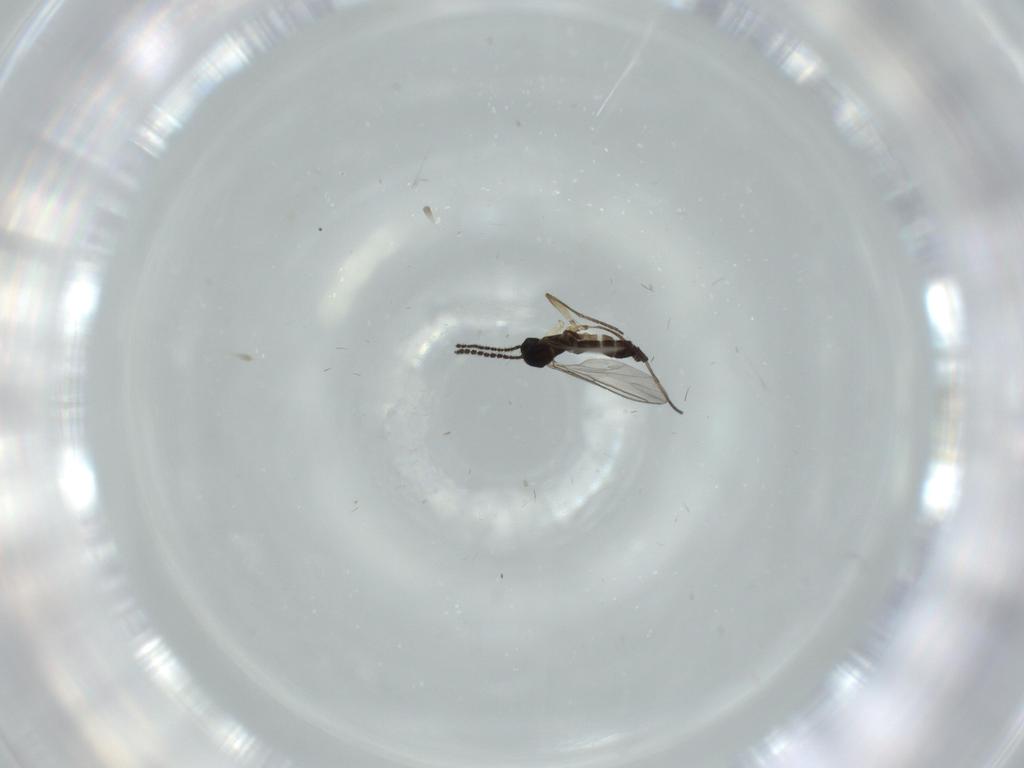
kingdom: Animalia
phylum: Arthropoda
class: Insecta
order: Diptera
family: Sciaridae
